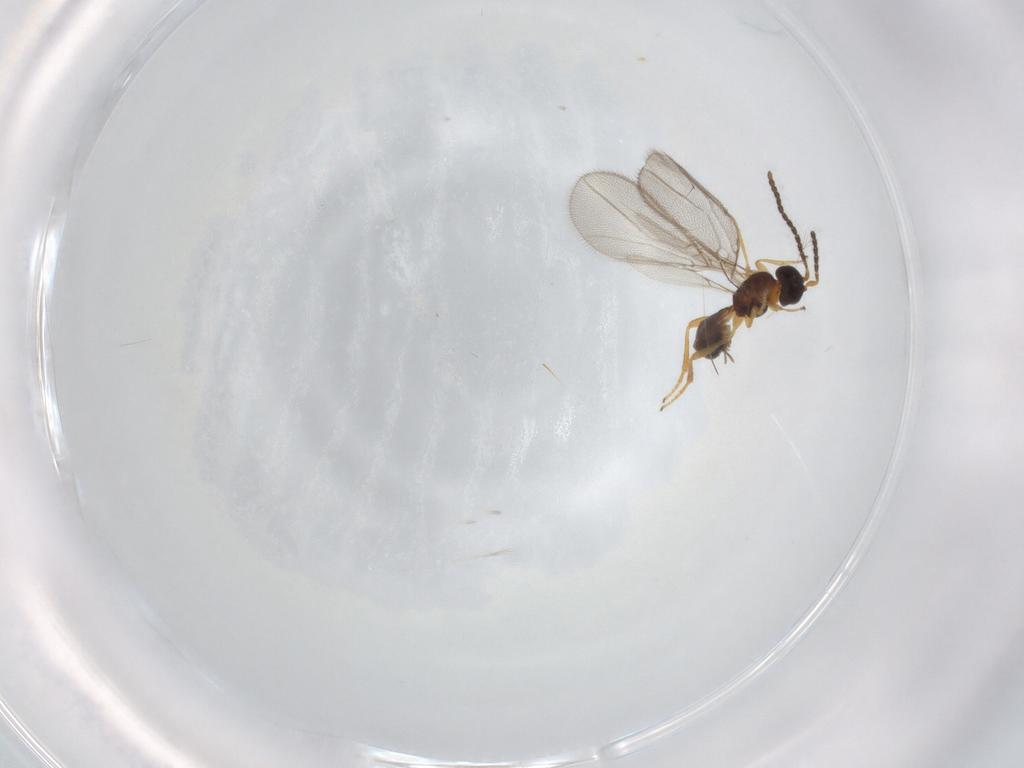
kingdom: Animalia
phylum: Arthropoda
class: Insecta
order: Hymenoptera
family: Braconidae
